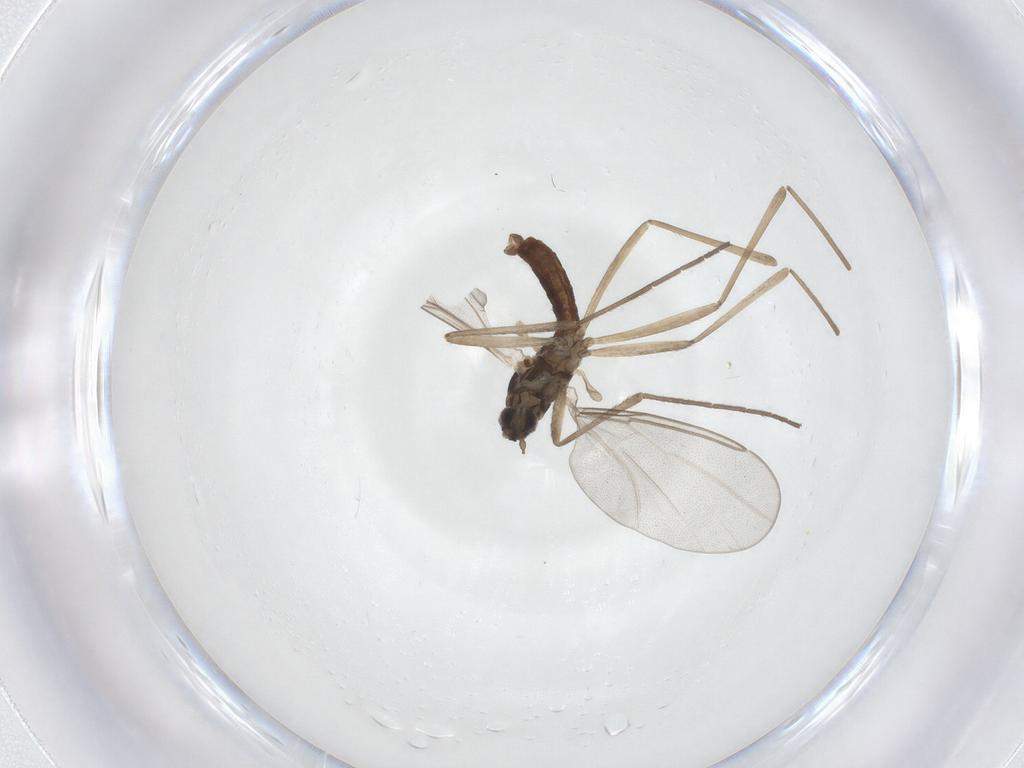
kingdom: Animalia
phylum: Arthropoda
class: Insecta
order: Diptera
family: Cecidomyiidae
